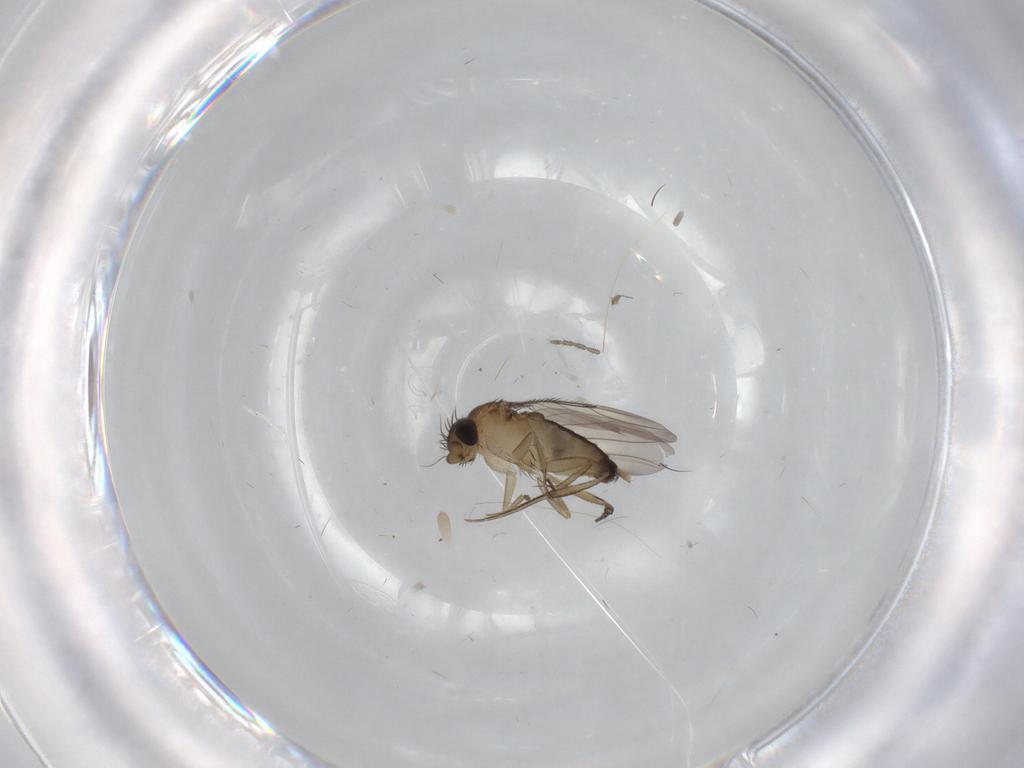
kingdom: Animalia
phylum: Arthropoda
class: Insecta
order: Diptera
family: Phoridae
